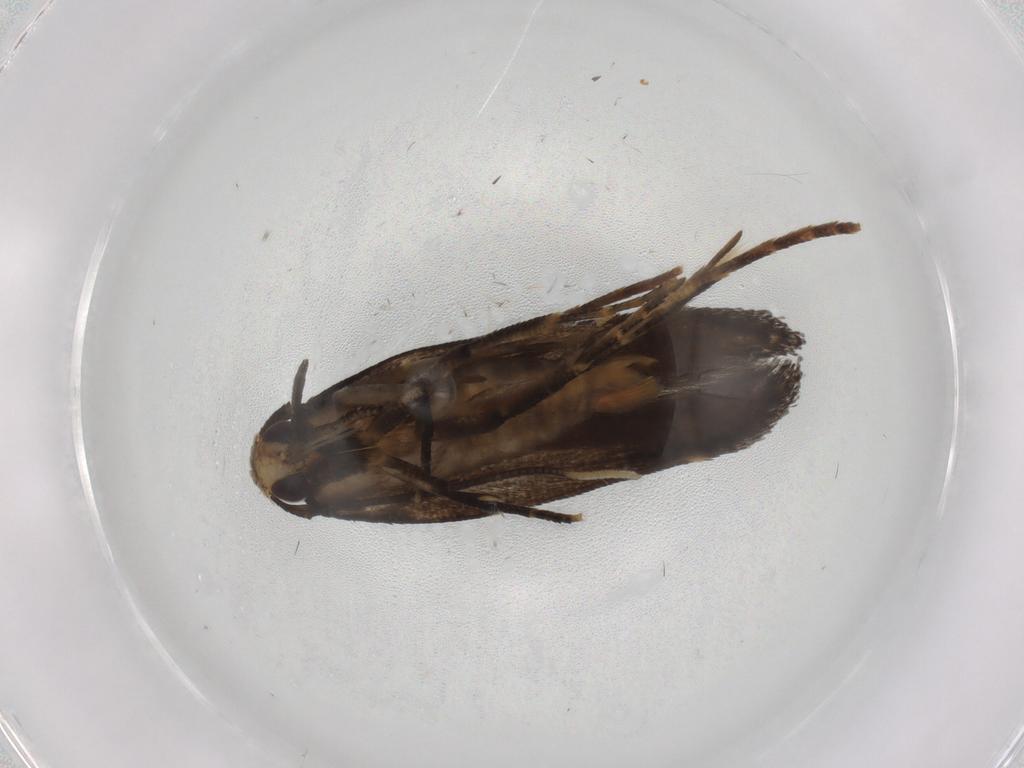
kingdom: Animalia
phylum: Arthropoda
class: Insecta
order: Lepidoptera
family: Cosmopterigidae
